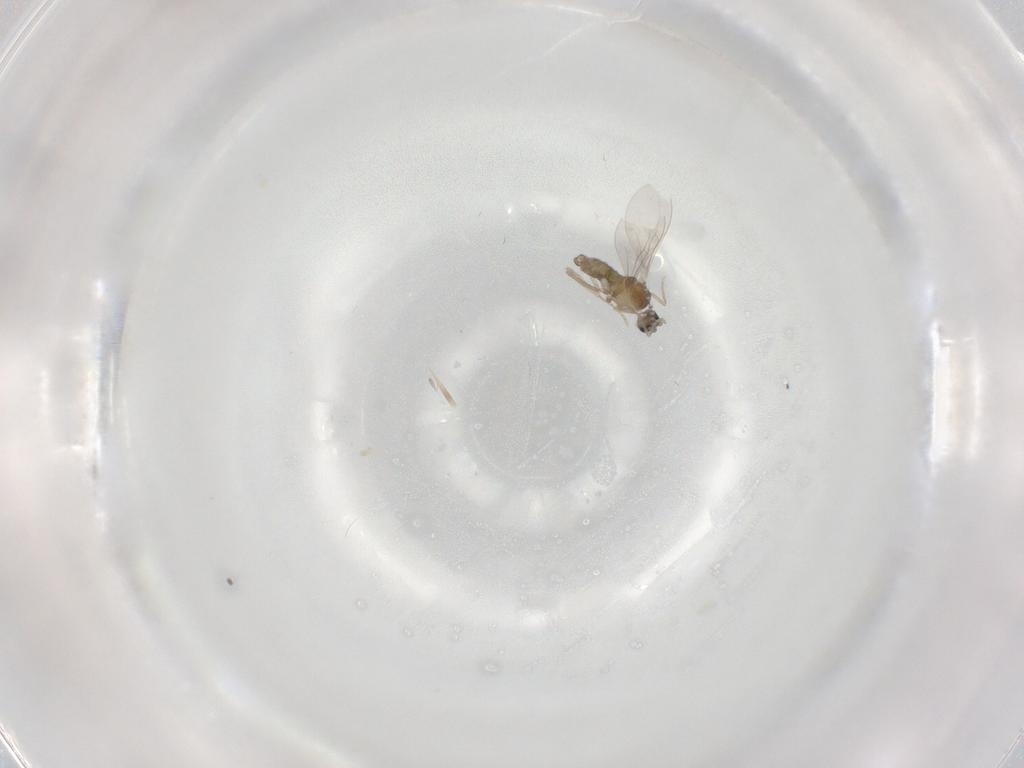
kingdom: Animalia
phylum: Arthropoda
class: Insecta
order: Diptera
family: Cecidomyiidae
